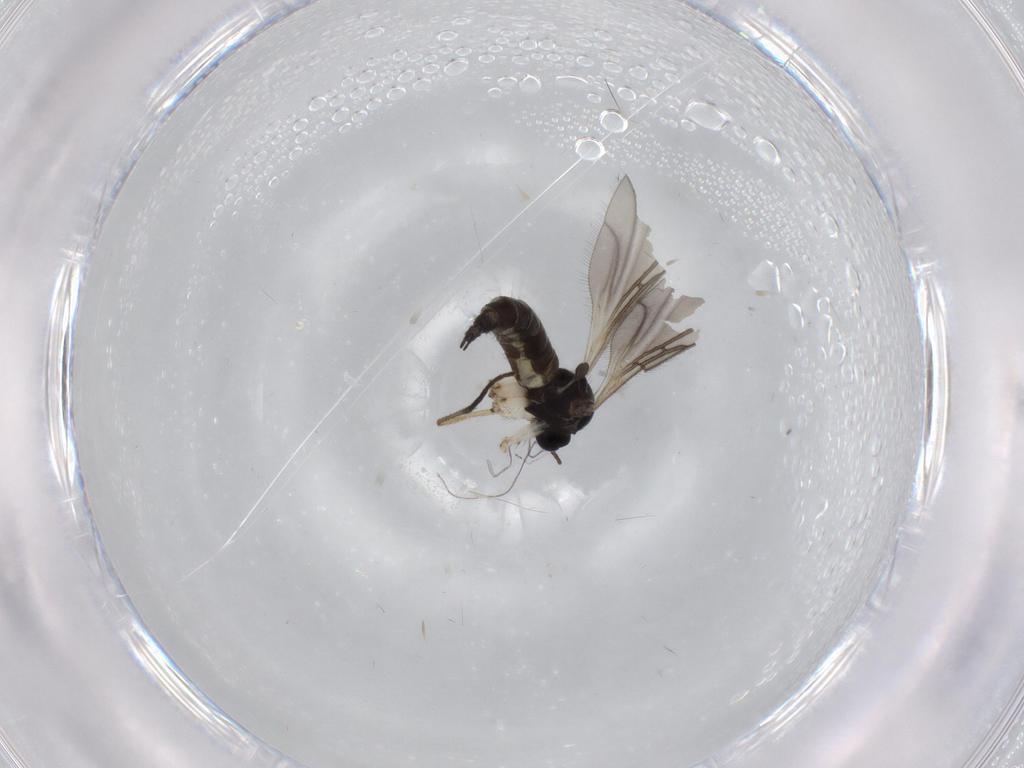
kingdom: Animalia
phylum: Arthropoda
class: Insecta
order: Diptera
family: Sciaridae
